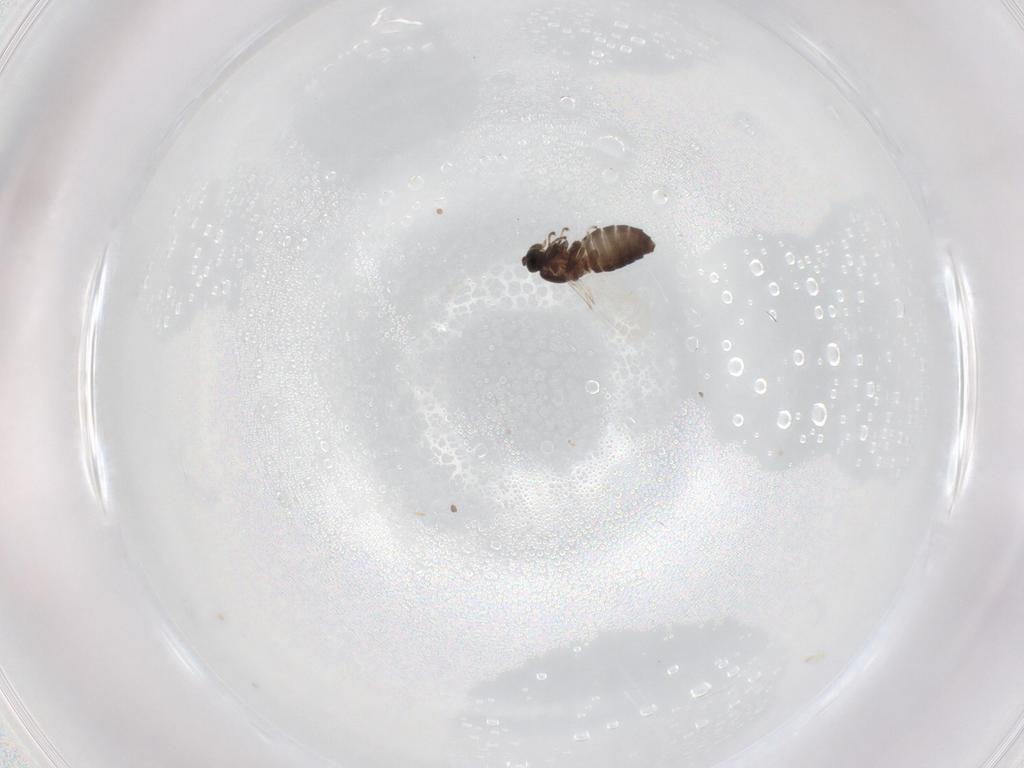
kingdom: Animalia
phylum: Arthropoda
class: Insecta
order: Diptera
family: Scatopsidae
